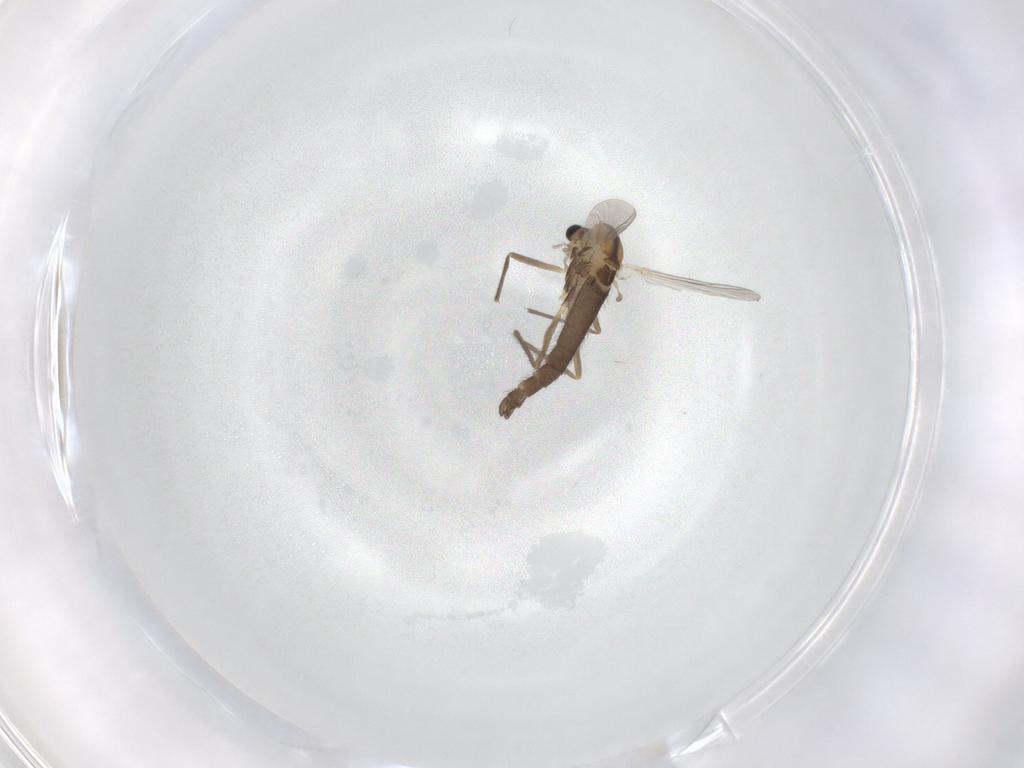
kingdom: Animalia
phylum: Arthropoda
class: Insecta
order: Diptera
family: Chironomidae
